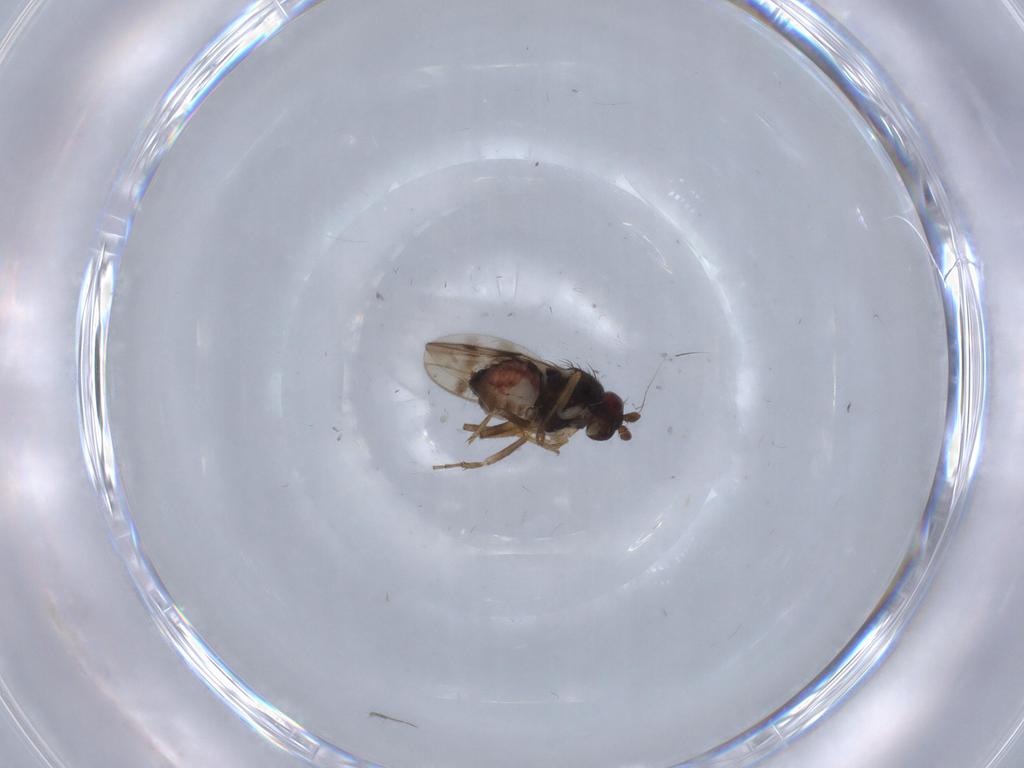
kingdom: Animalia
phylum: Arthropoda
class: Insecta
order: Diptera
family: Sphaeroceridae
